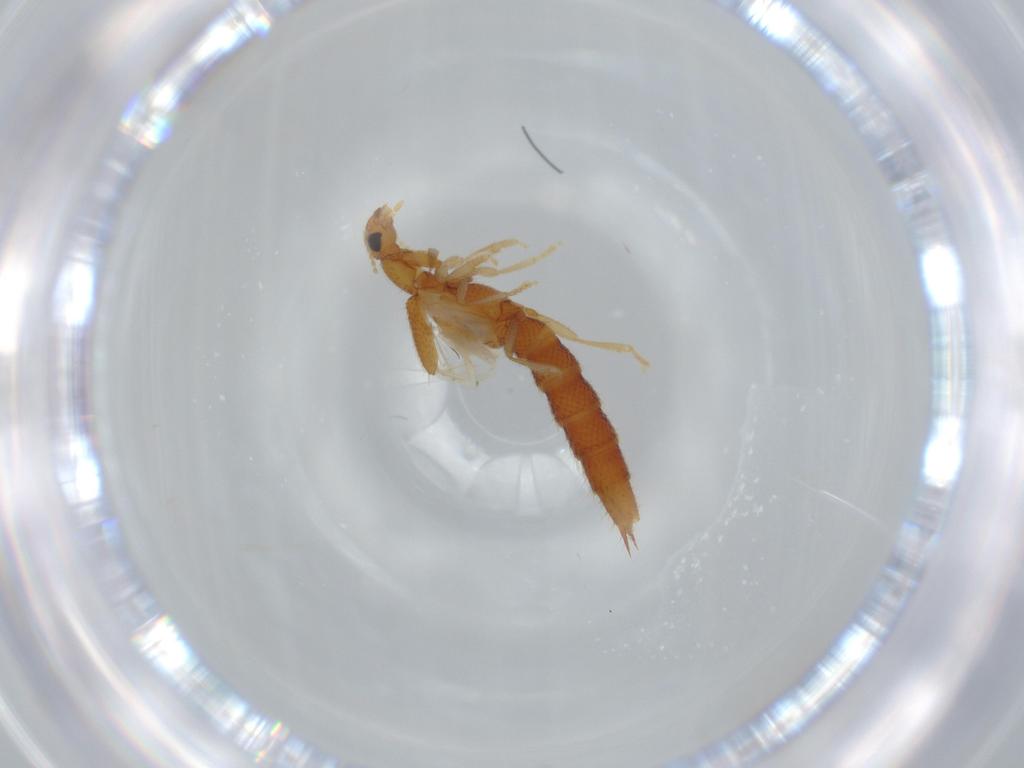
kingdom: Animalia
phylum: Arthropoda
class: Insecta
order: Coleoptera
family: Staphylinidae
